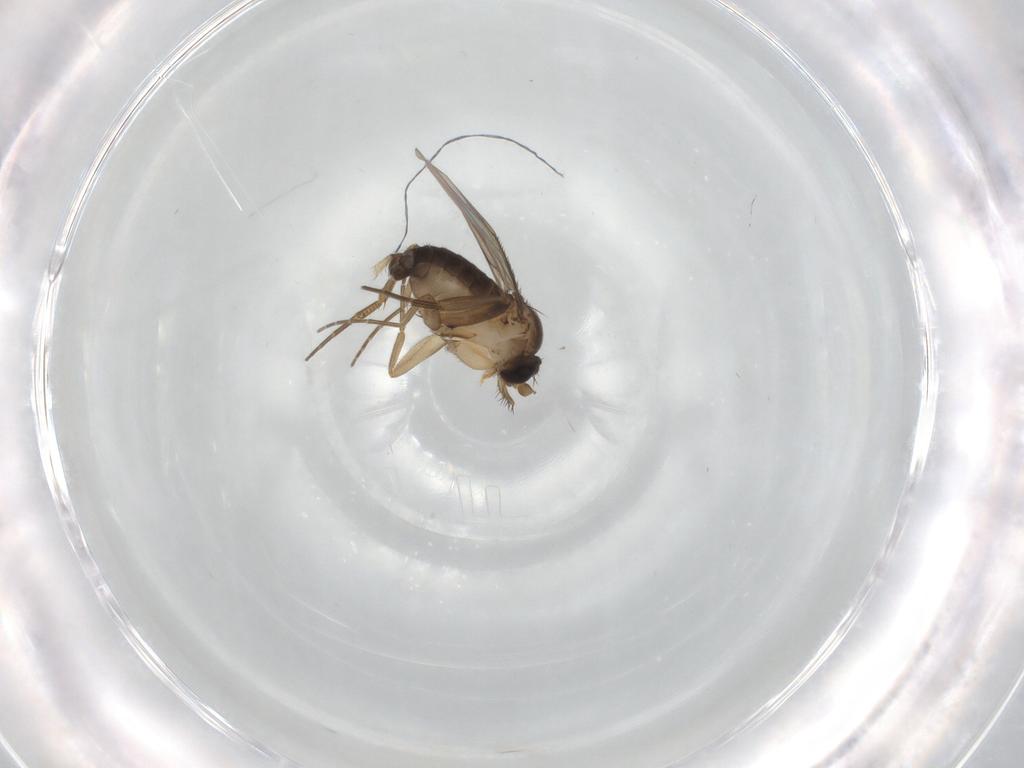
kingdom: Animalia
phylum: Arthropoda
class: Insecta
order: Diptera
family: Phoridae
